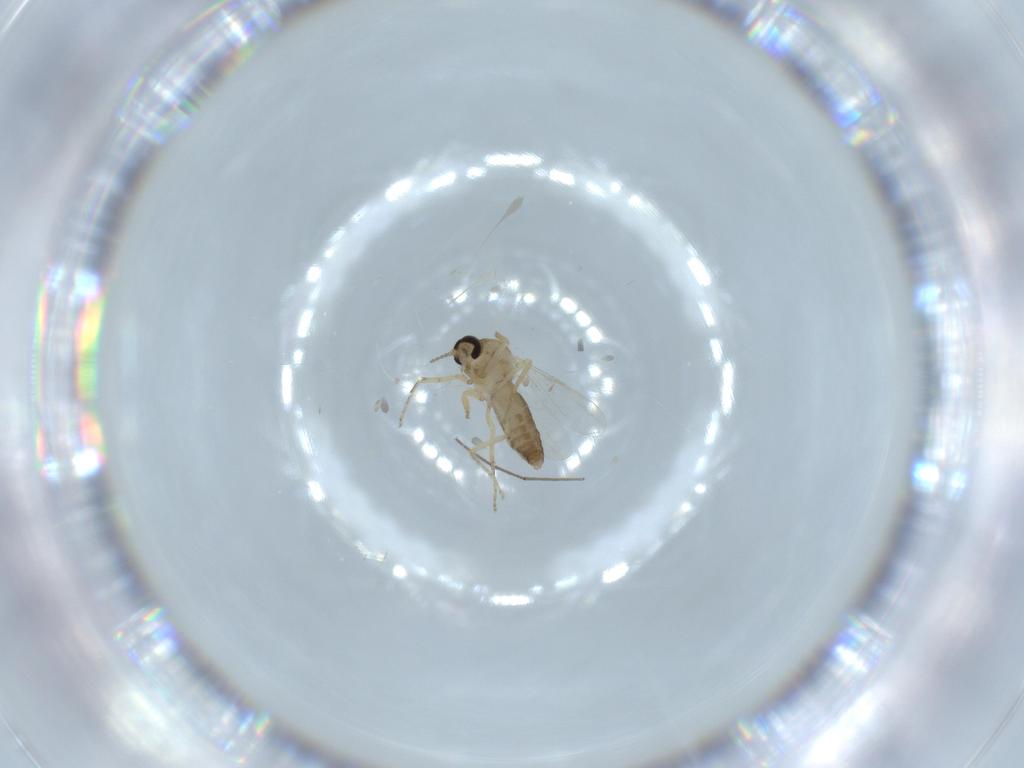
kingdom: Animalia
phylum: Arthropoda
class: Insecta
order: Diptera
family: Ceratopogonidae
